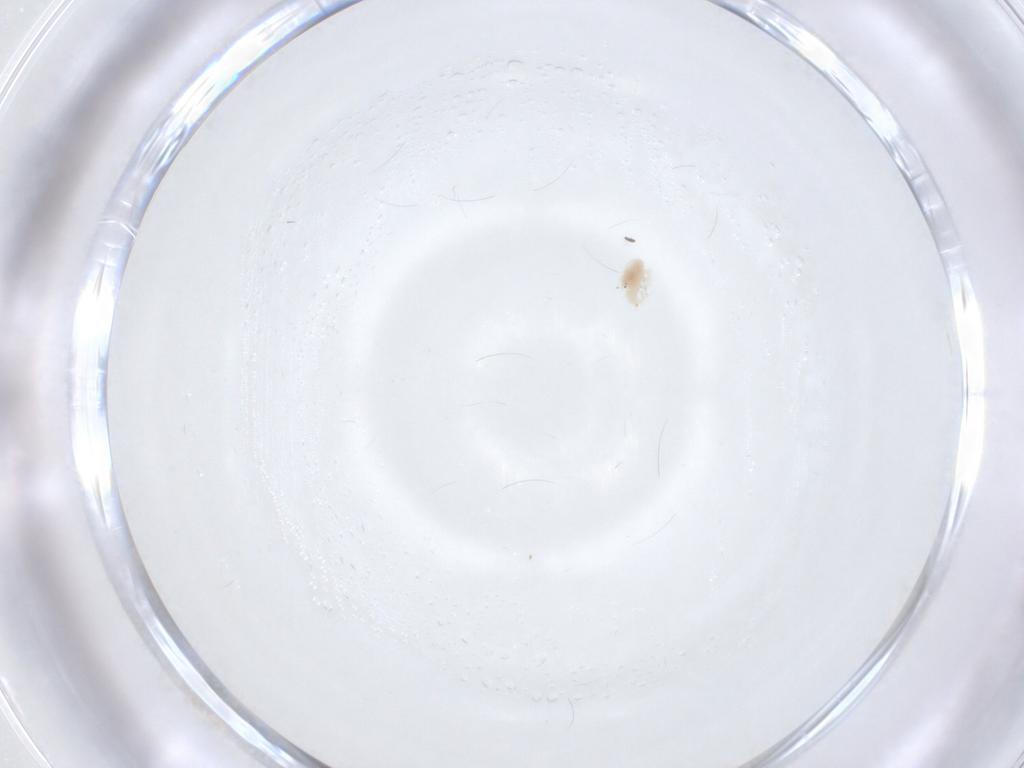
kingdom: Animalia
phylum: Arthropoda
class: Arachnida
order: Trombidiformes
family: Bdellidae
